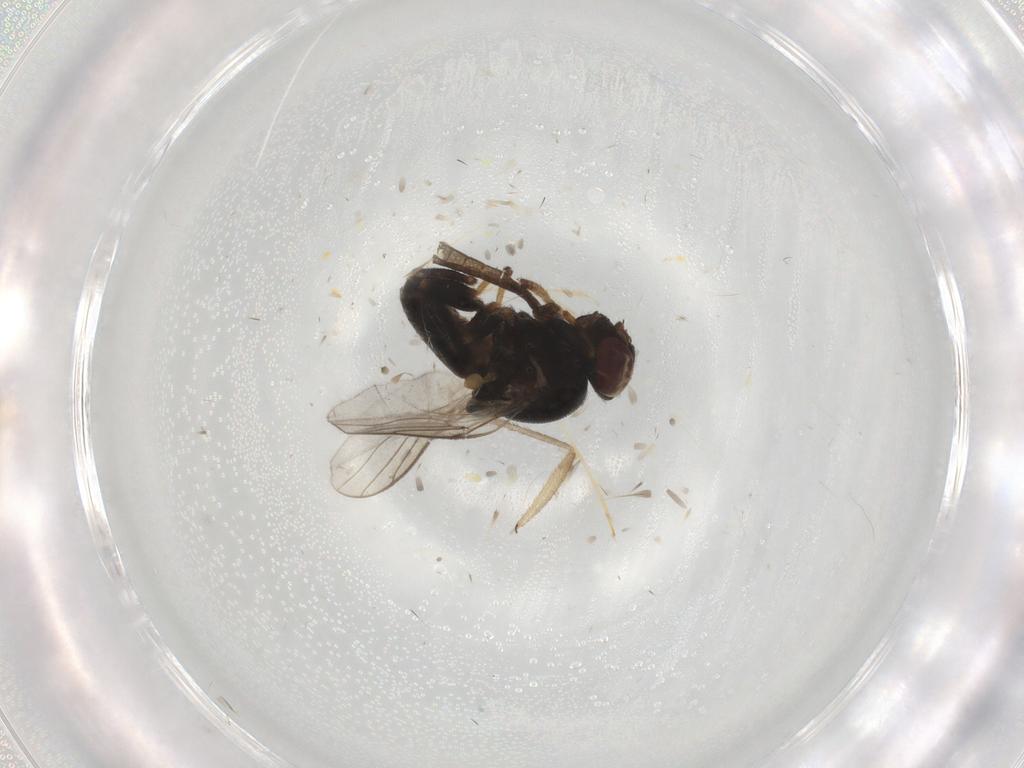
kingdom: Animalia
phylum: Arthropoda
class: Insecta
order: Diptera
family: Chloropidae
